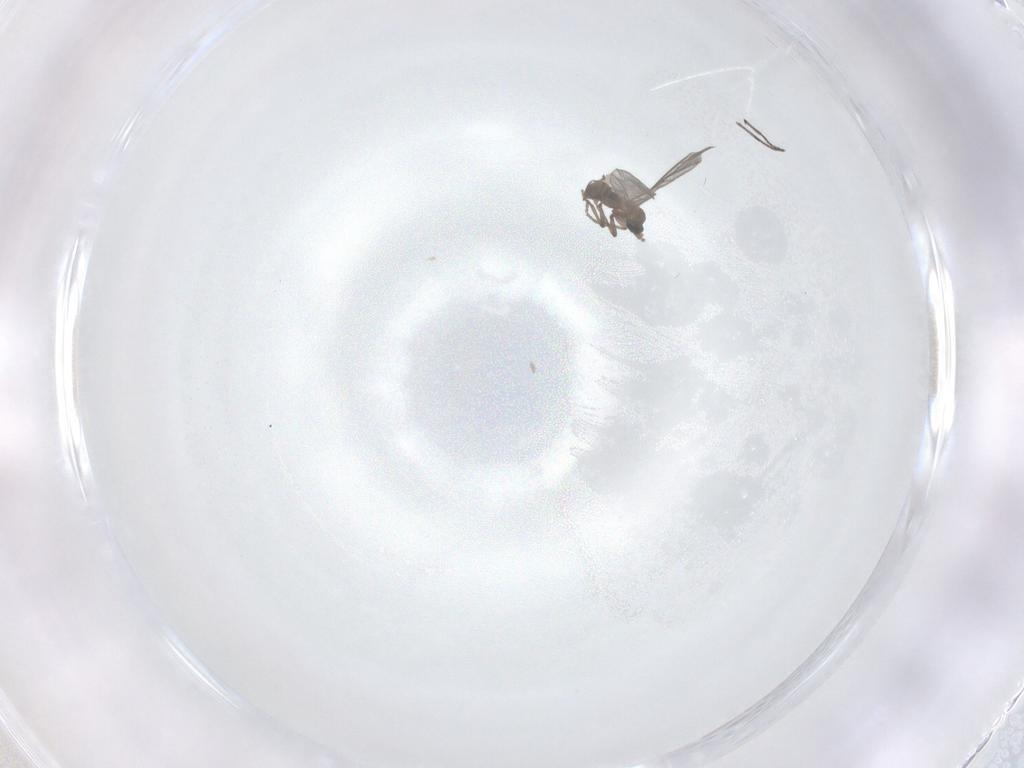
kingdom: Animalia
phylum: Arthropoda
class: Insecta
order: Diptera
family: Sciaridae
